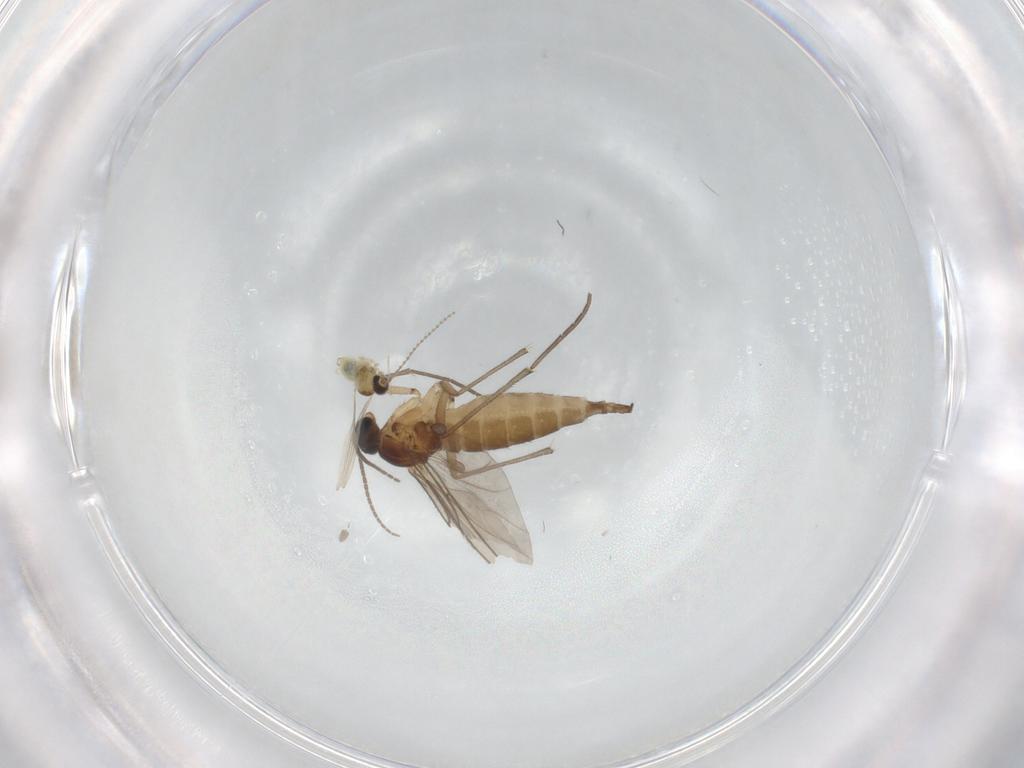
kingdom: Animalia
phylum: Arthropoda
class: Insecta
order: Diptera
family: Sciaridae
